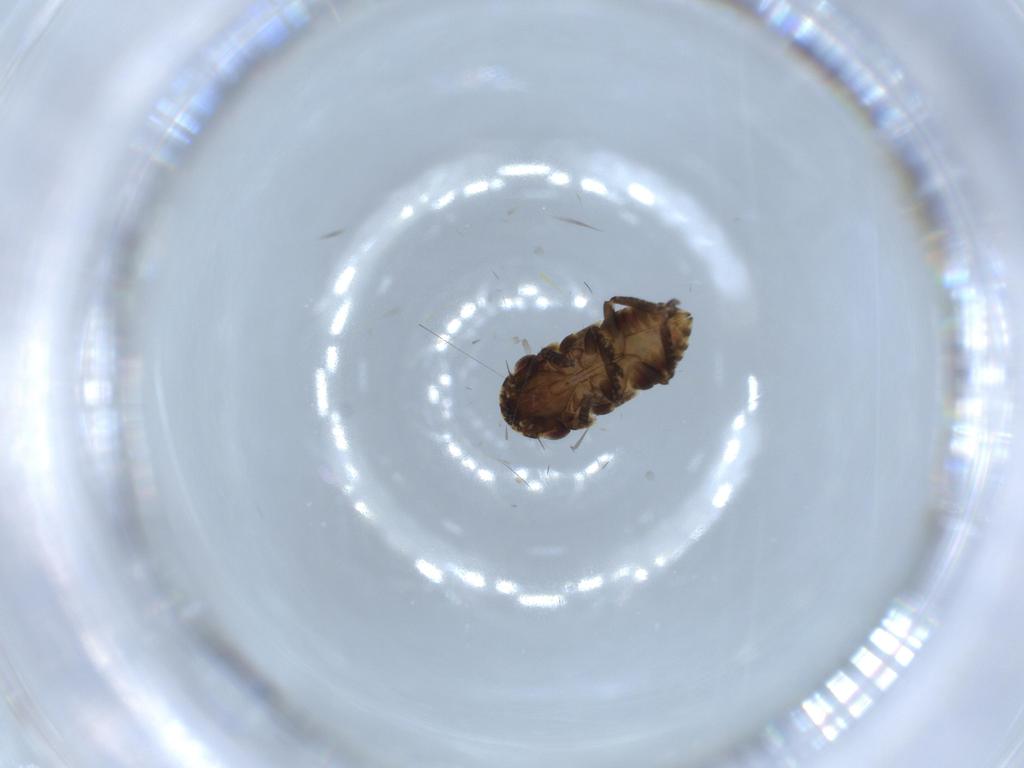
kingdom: Animalia
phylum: Arthropoda
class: Insecta
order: Hemiptera
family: Cicadellidae
